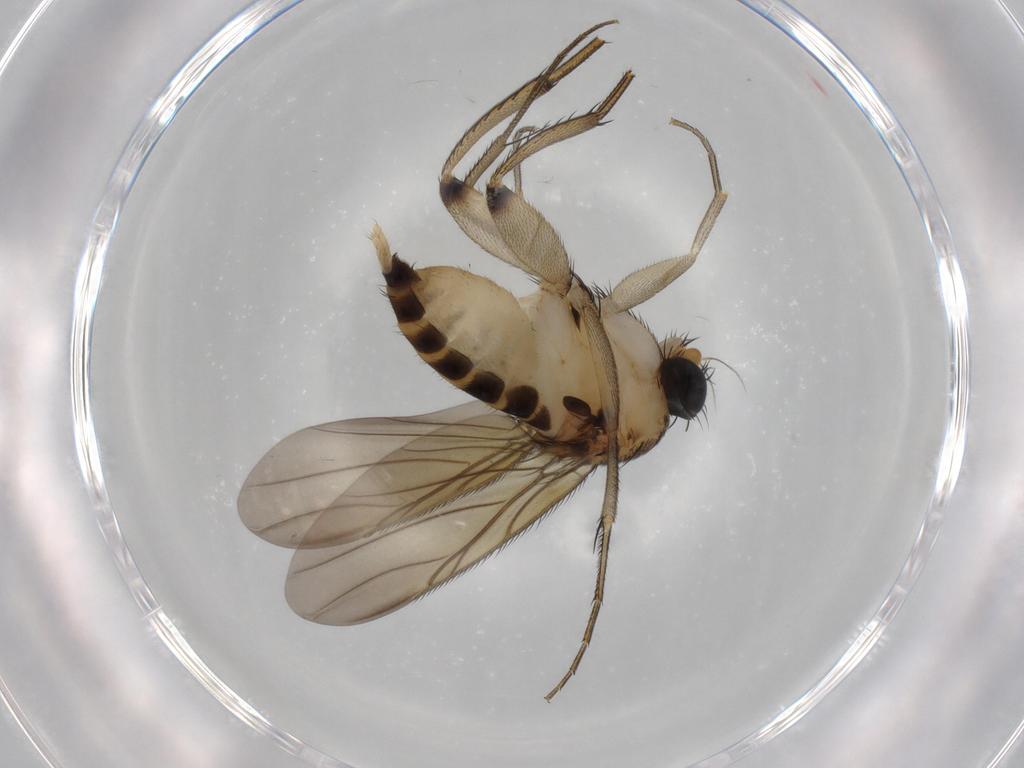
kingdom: Animalia
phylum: Arthropoda
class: Insecta
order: Diptera
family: Phoridae
